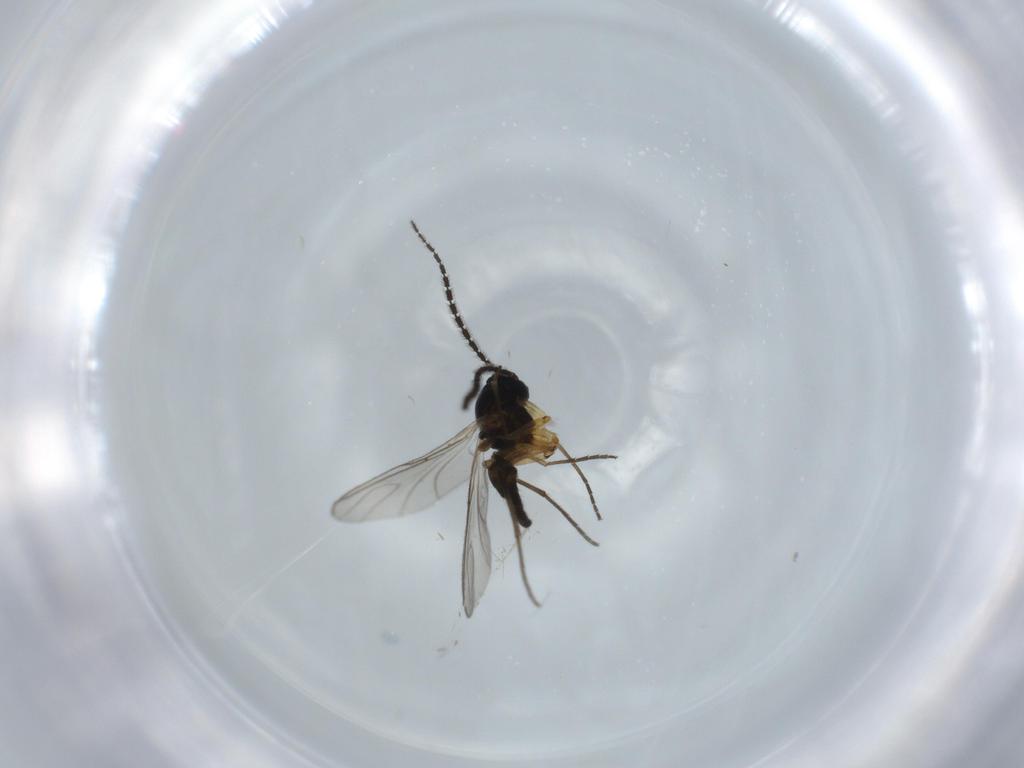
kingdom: Animalia
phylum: Arthropoda
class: Insecta
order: Diptera
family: Sciaridae
